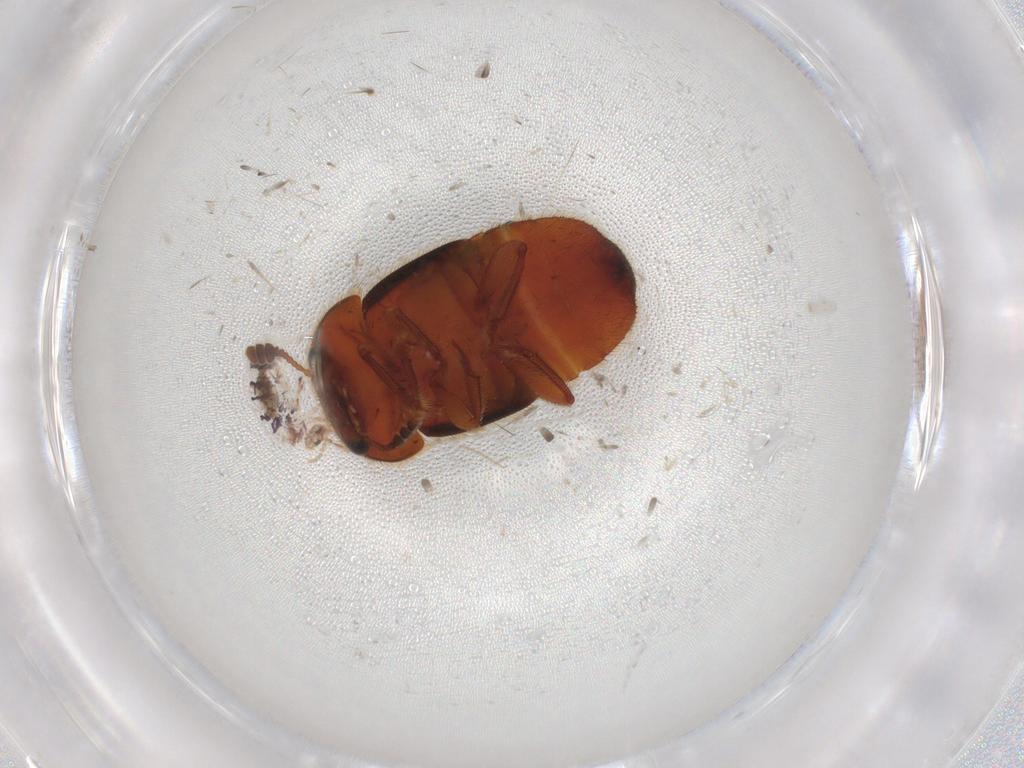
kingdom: Animalia
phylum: Arthropoda
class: Insecta
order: Coleoptera
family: Nitidulidae
